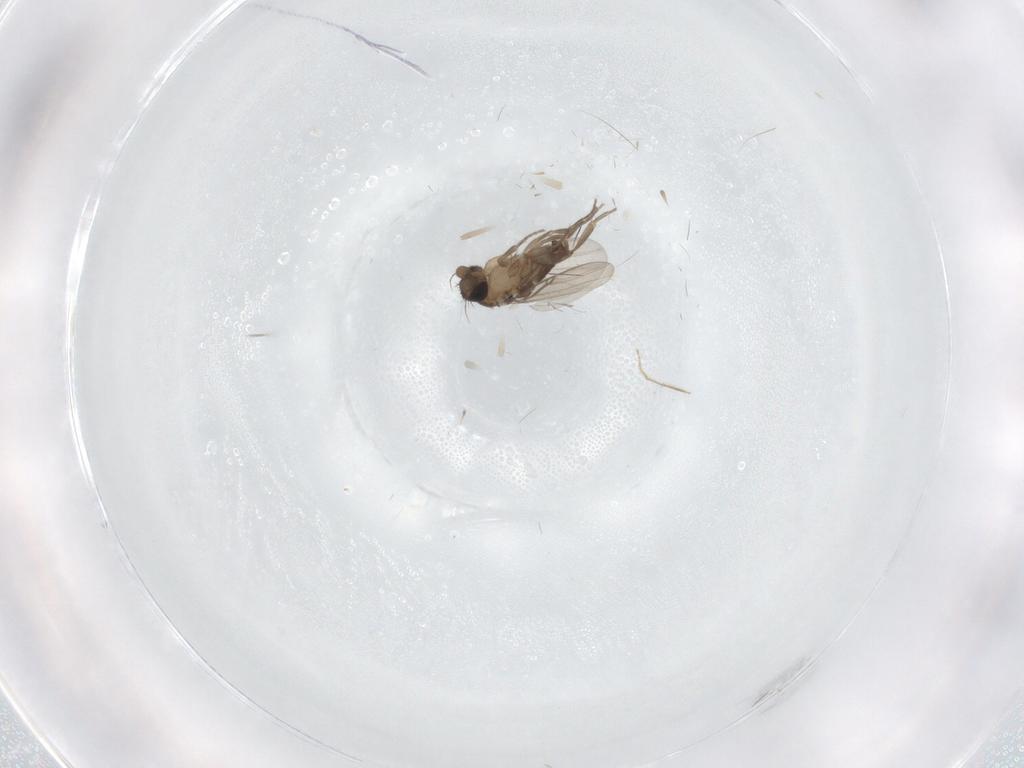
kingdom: Animalia
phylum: Arthropoda
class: Insecta
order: Diptera
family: Chironomidae
